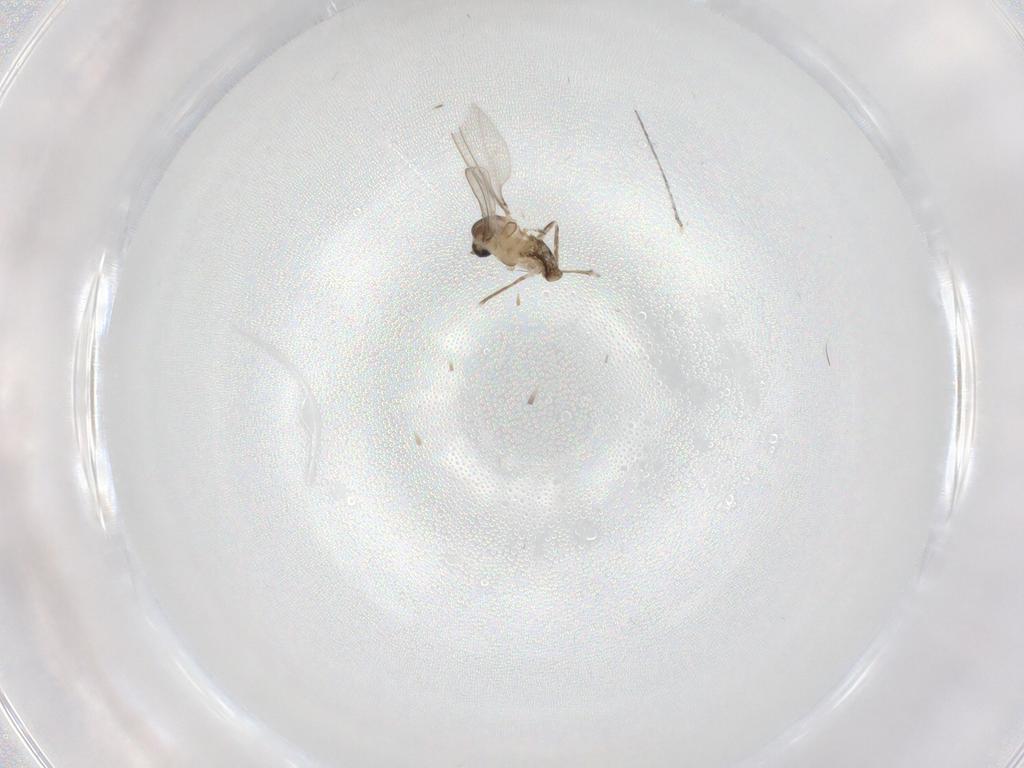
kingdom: Animalia
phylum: Arthropoda
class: Insecta
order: Diptera
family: Cecidomyiidae
